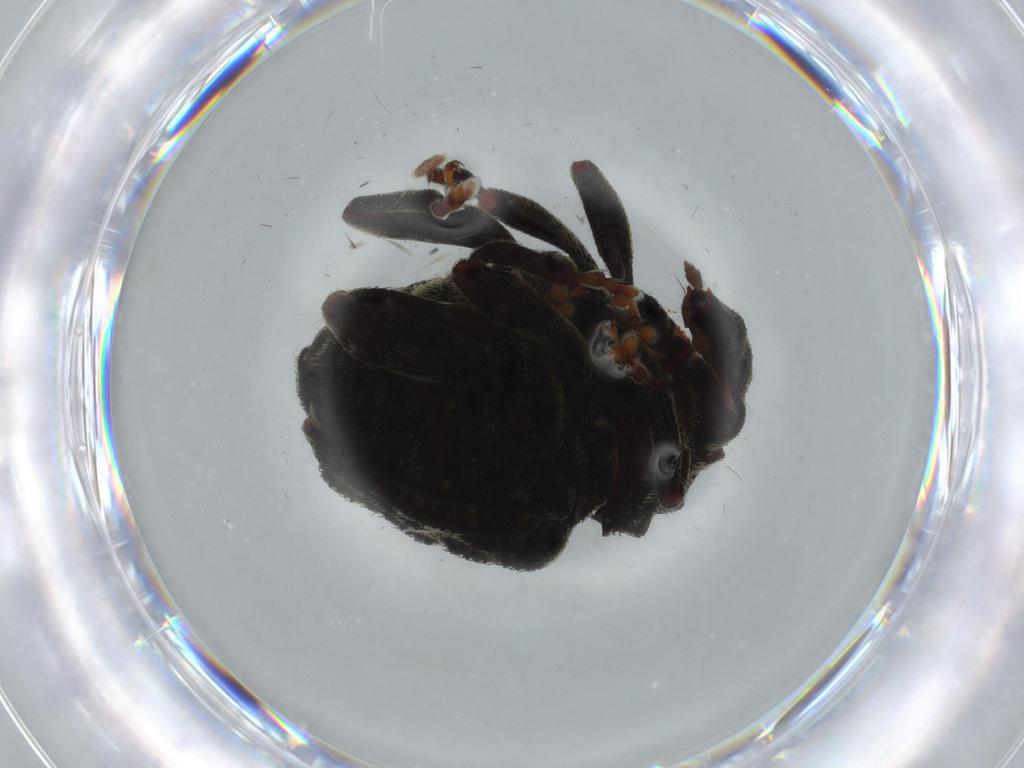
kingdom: Animalia
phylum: Arthropoda
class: Insecta
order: Coleoptera
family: Curculionidae
